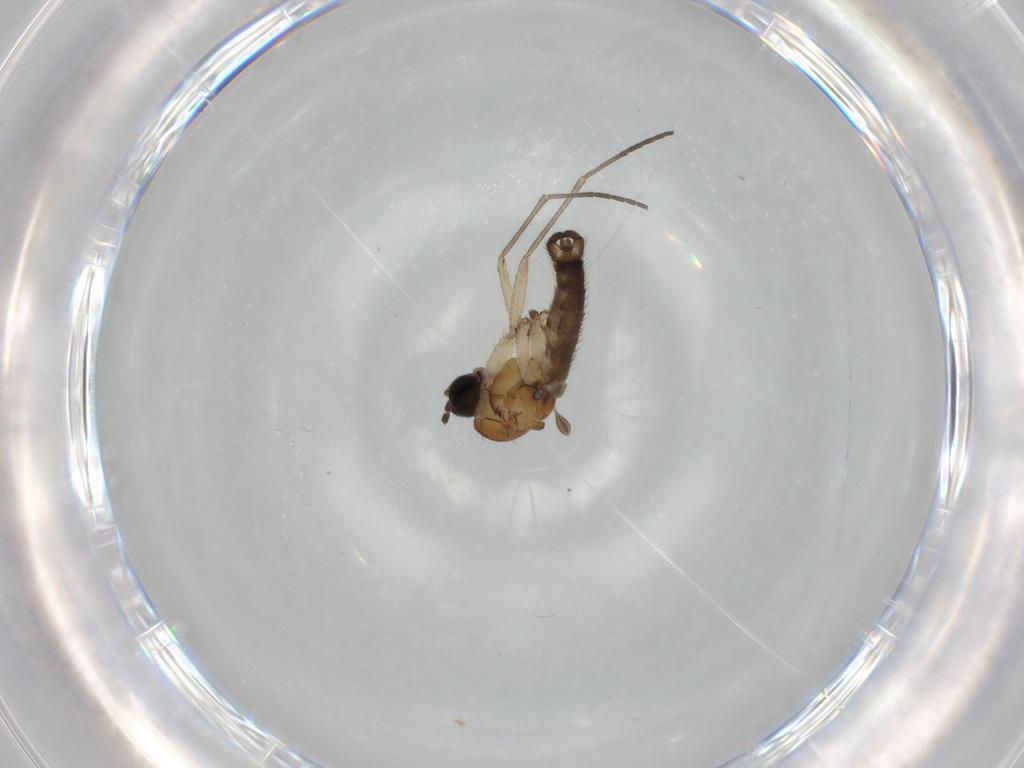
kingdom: Animalia
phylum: Arthropoda
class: Insecta
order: Diptera
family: Sciaridae
